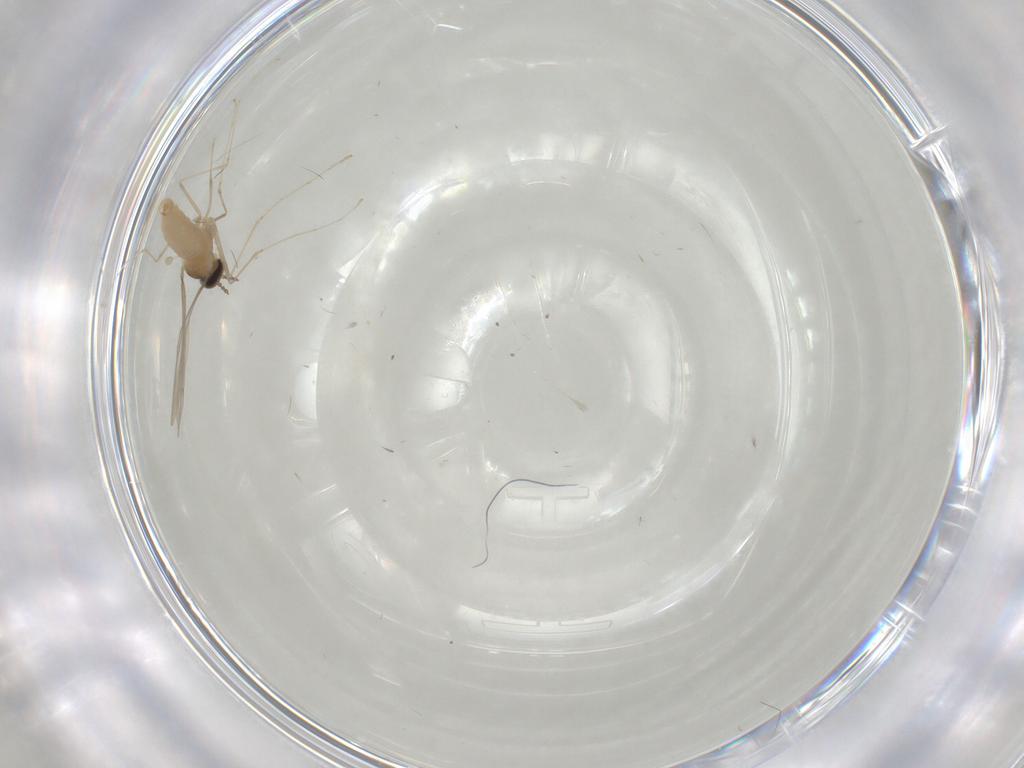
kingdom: Animalia
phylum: Arthropoda
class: Insecta
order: Diptera
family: Cecidomyiidae
